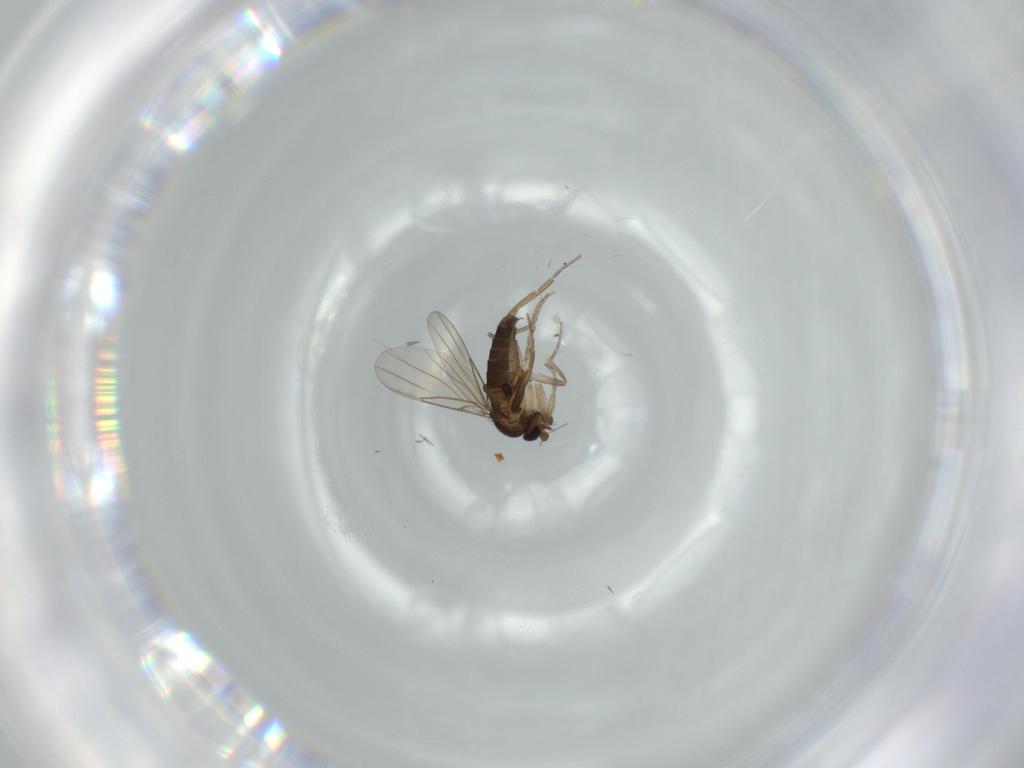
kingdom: Animalia
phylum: Arthropoda
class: Insecta
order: Diptera
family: Phoridae
